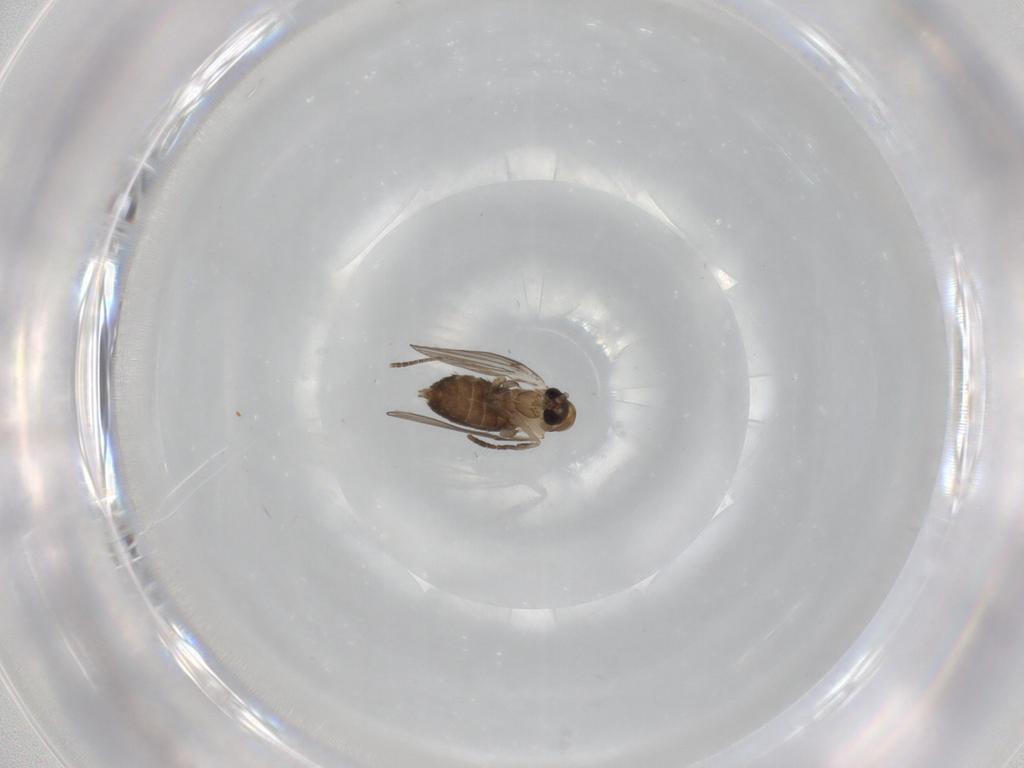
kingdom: Animalia
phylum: Arthropoda
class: Insecta
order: Diptera
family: Psychodidae
